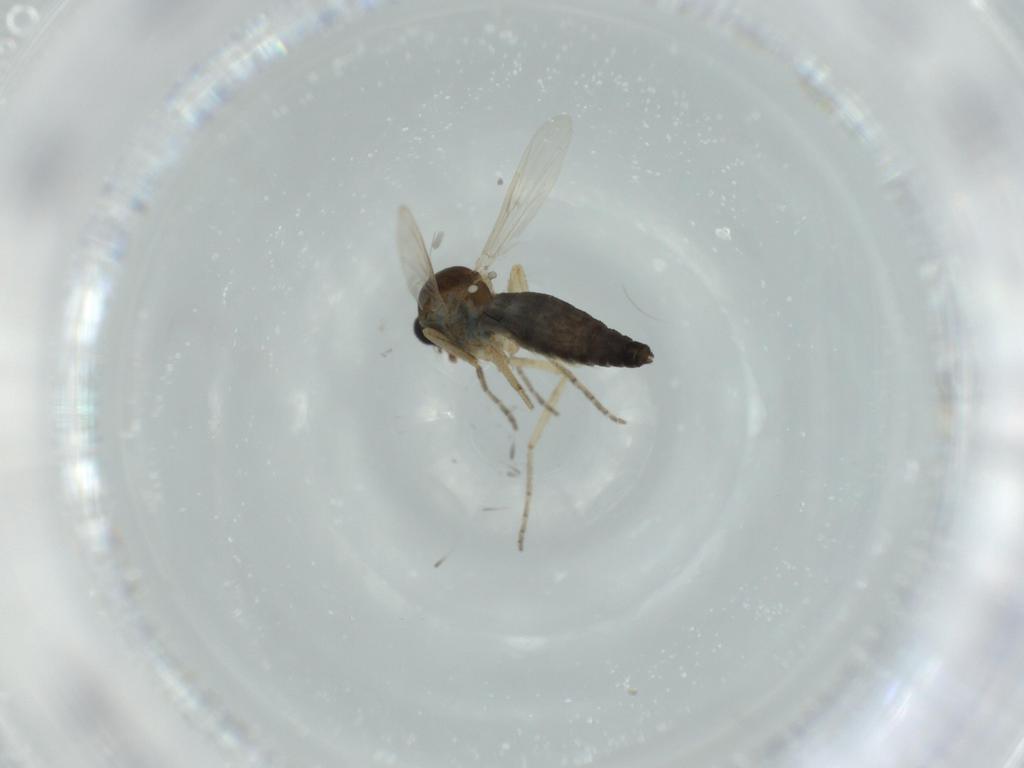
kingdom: Animalia
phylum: Arthropoda
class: Insecta
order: Diptera
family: Ceratopogonidae
